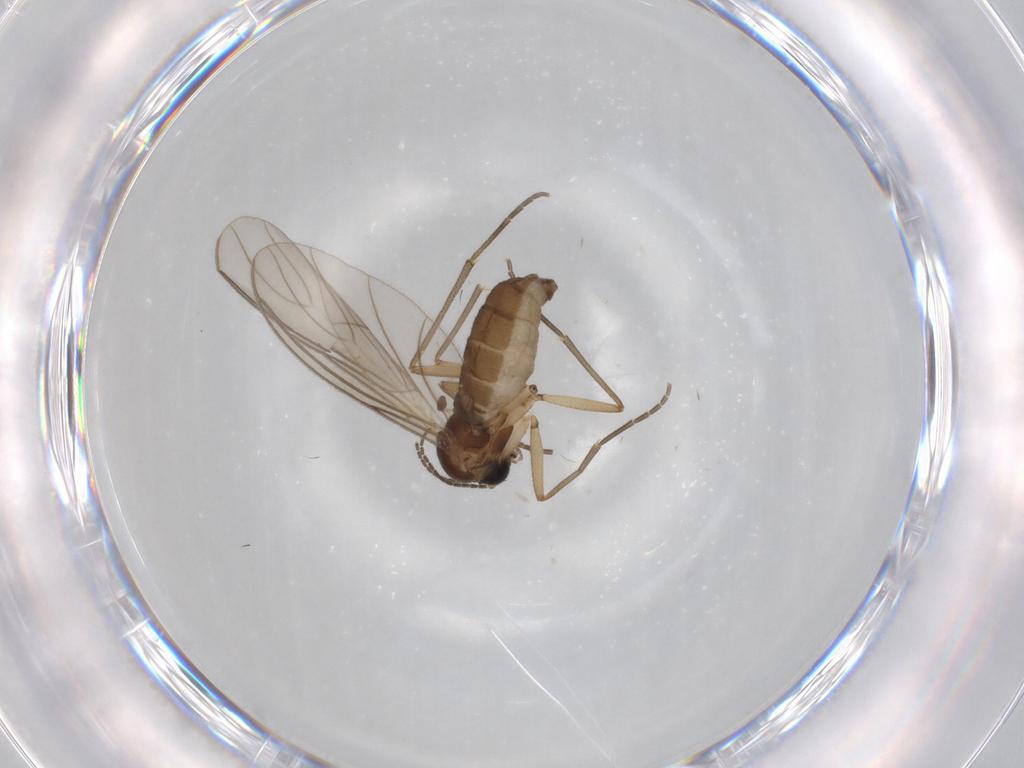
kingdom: Animalia
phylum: Arthropoda
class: Insecta
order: Diptera
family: Sciaridae
